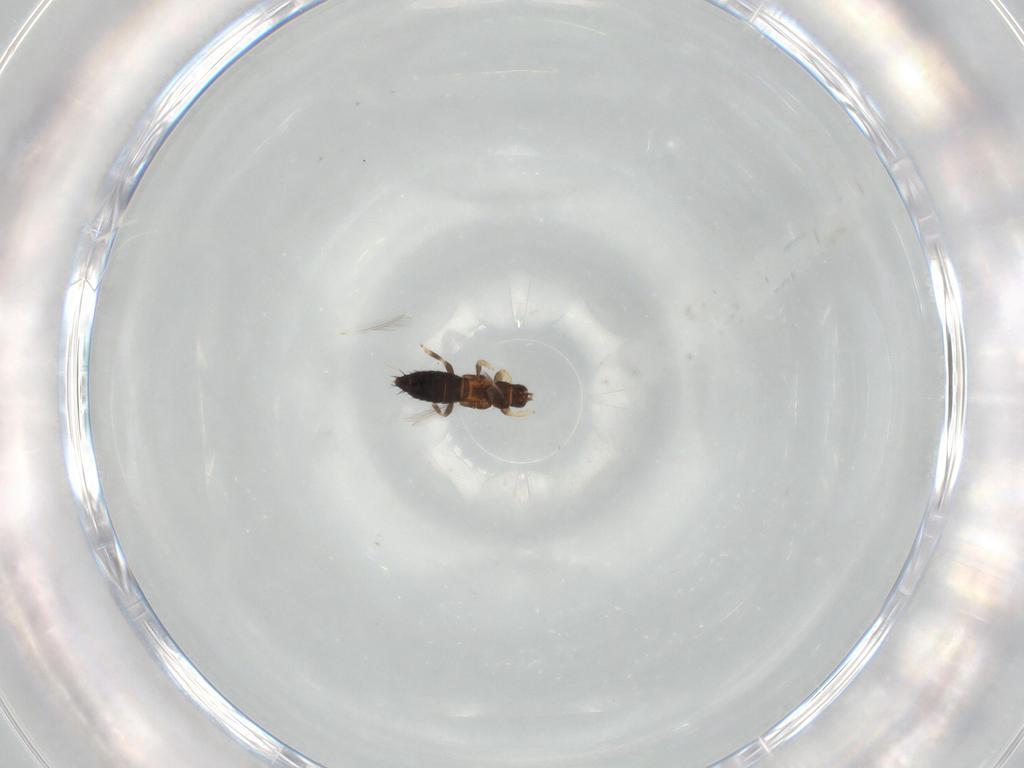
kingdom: Animalia
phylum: Arthropoda
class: Insecta
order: Thysanoptera
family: Thripidae
